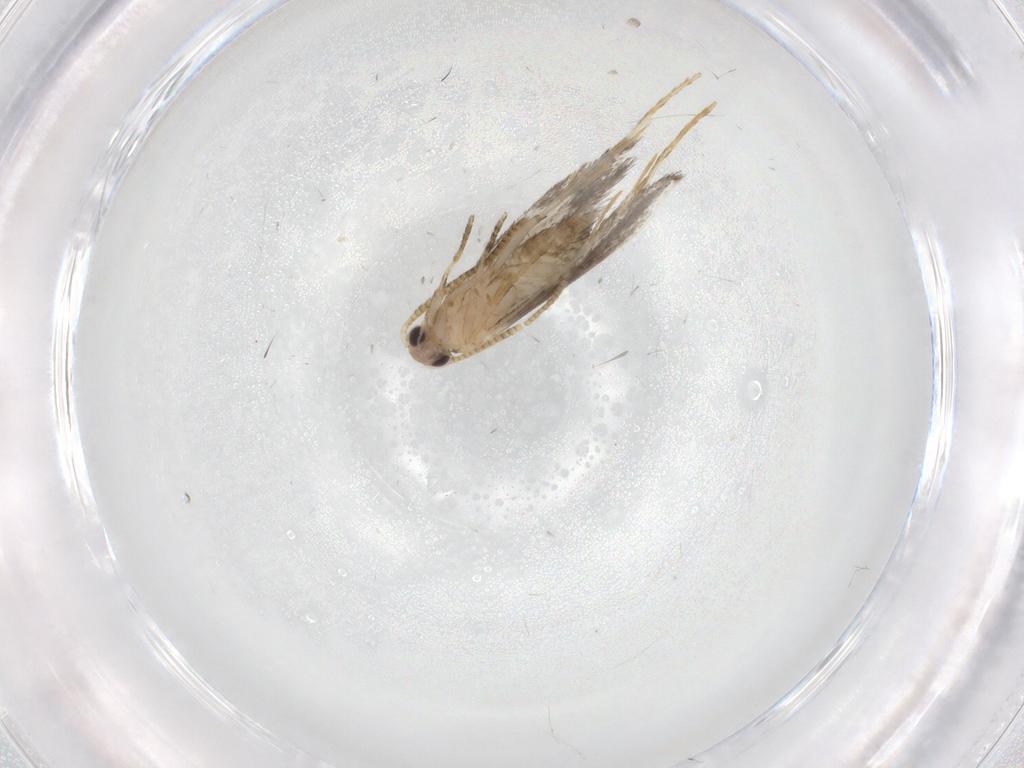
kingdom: Animalia
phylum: Arthropoda
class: Insecta
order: Lepidoptera
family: Tineidae
